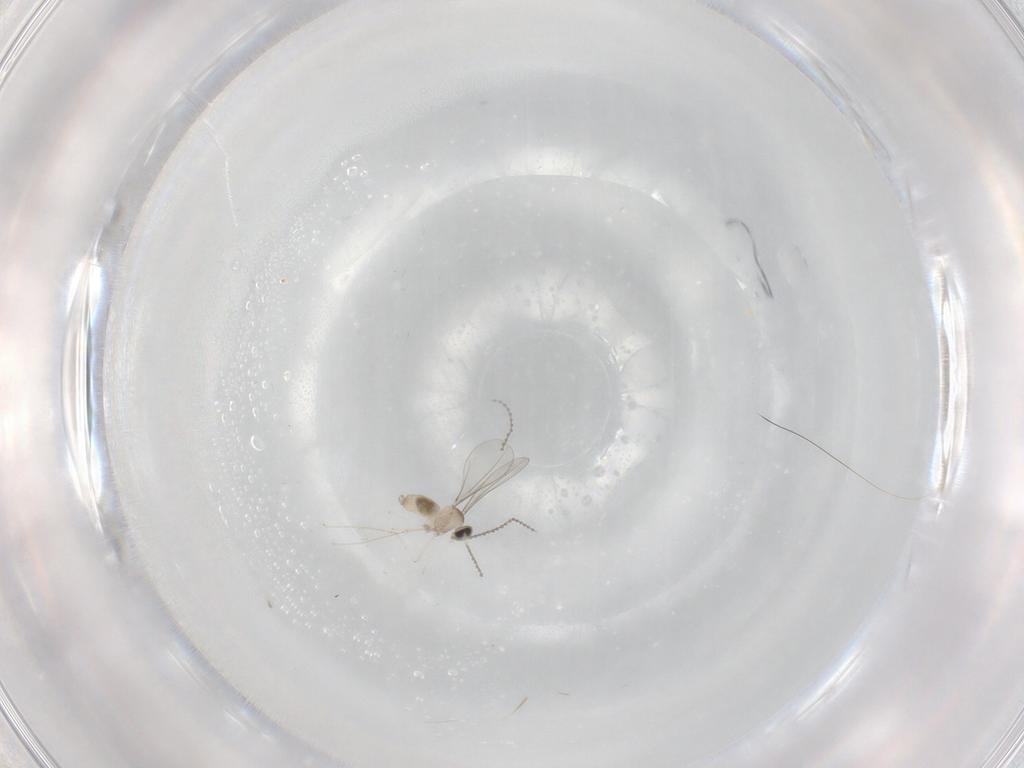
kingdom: Animalia
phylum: Arthropoda
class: Insecta
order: Diptera
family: Cecidomyiidae
